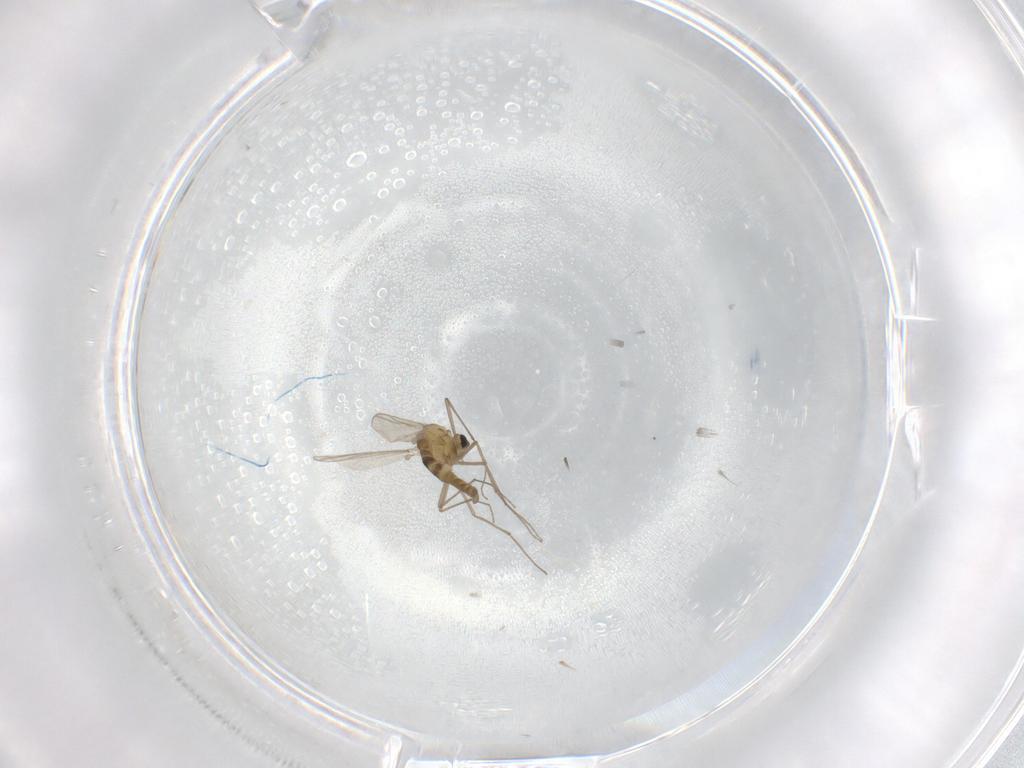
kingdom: Animalia
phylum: Arthropoda
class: Insecta
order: Diptera
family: Chironomidae
